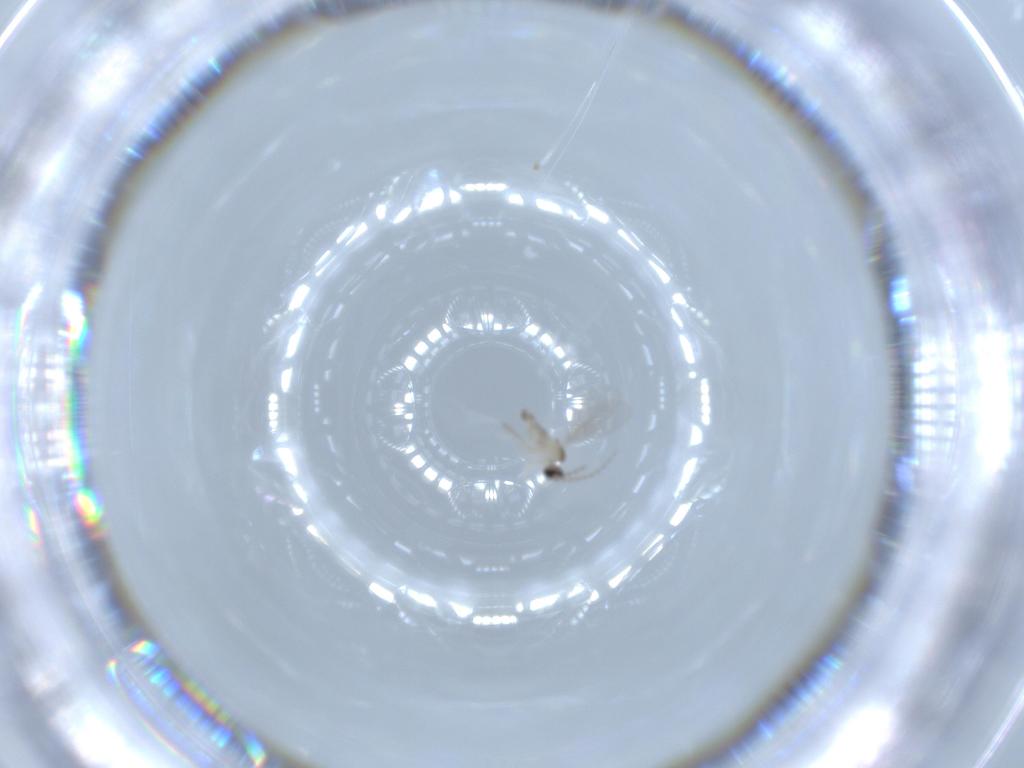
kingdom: Animalia
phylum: Arthropoda
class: Insecta
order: Diptera
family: Cecidomyiidae
